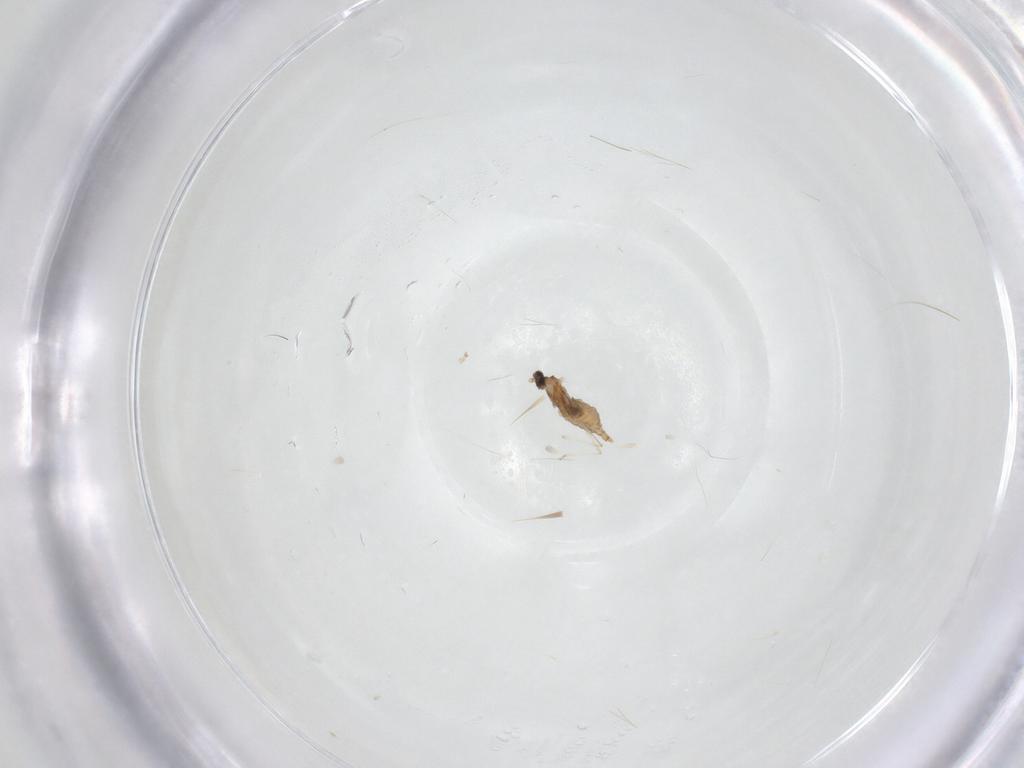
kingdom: Animalia
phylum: Arthropoda
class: Insecta
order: Diptera
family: Cecidomyiidae
